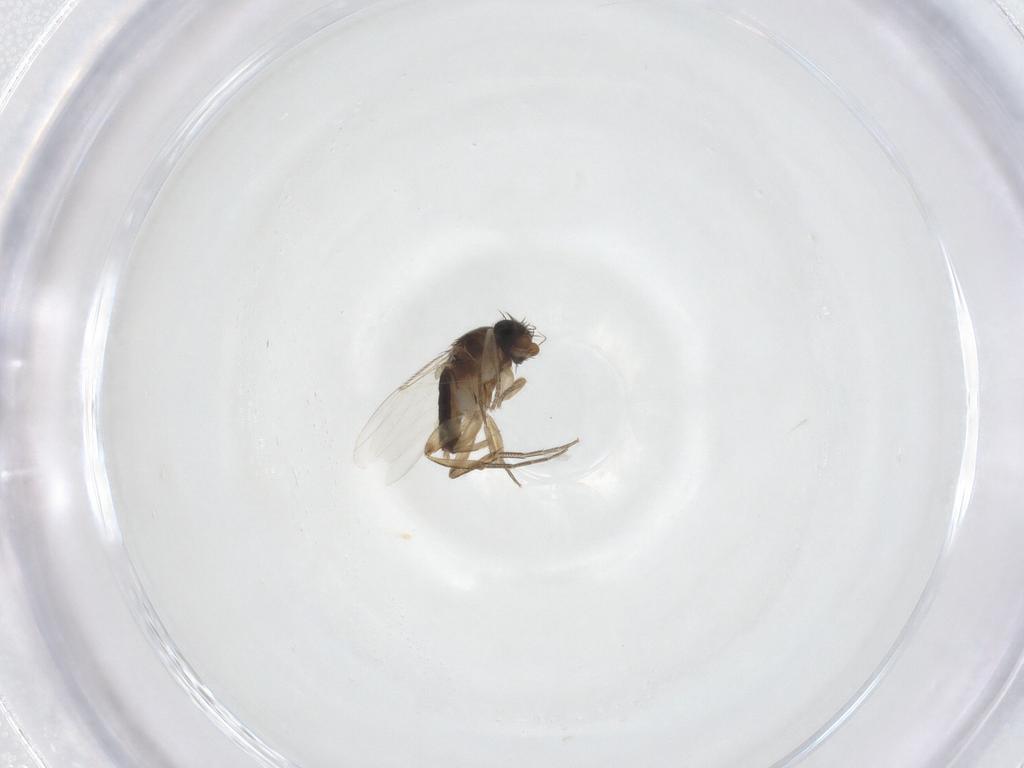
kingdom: Animalia
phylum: Arthropoda
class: Insecta
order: Diptera
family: Phoridae
